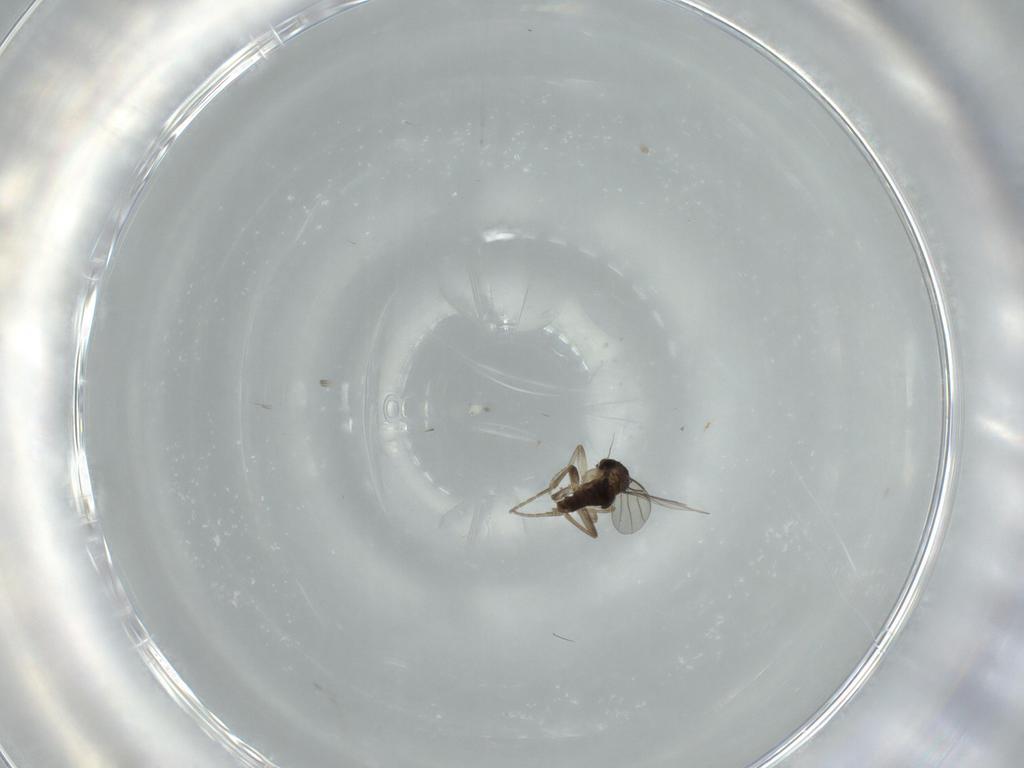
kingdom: Animalia
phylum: Arthropoda
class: Insecta
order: Diptera
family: Phoridae
